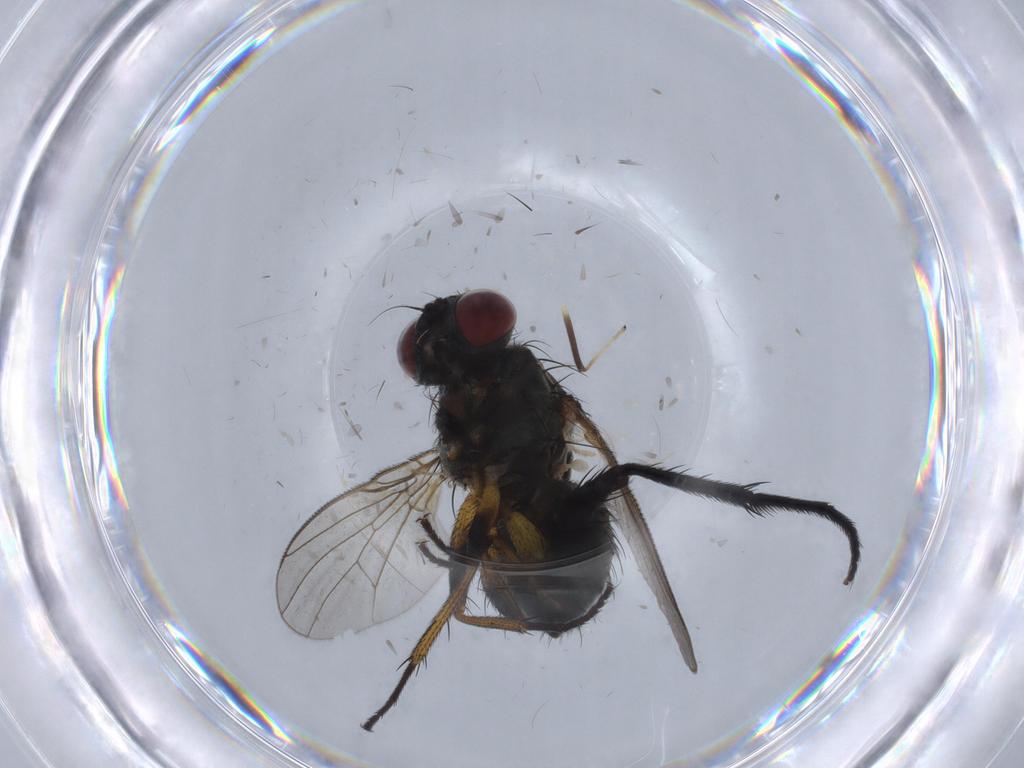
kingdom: Animalia
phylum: Arthropoda
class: Insecta
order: Diptera
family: Muscidae
